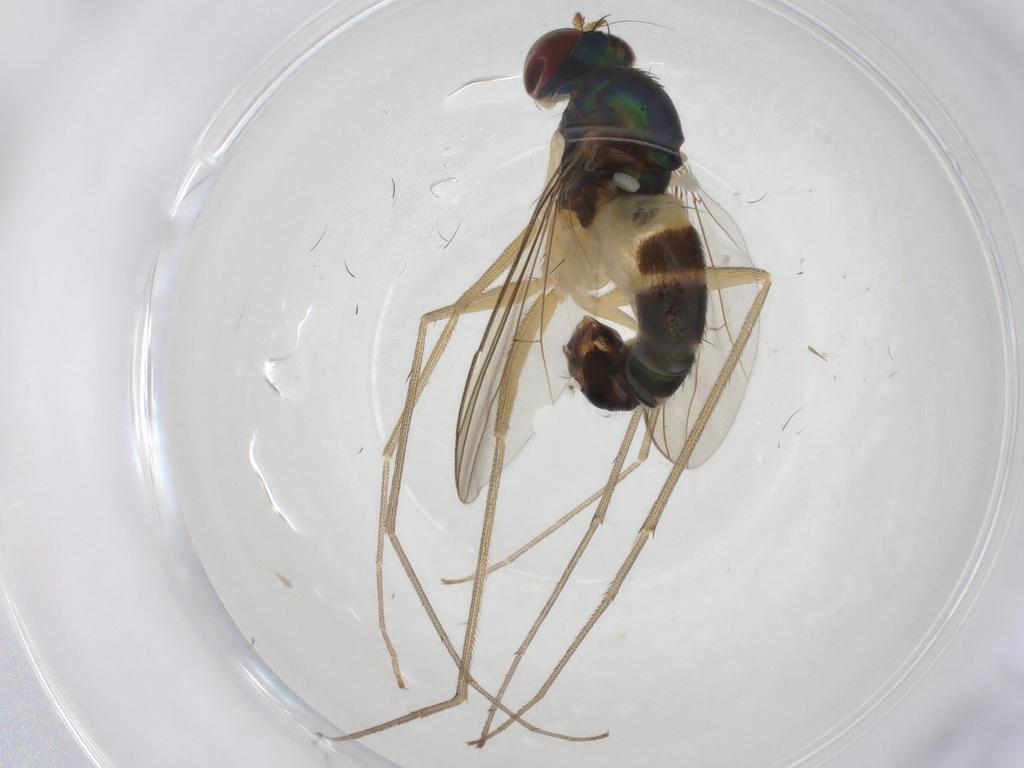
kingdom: Animalia
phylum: Arthropoda
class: Insecta
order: Diptera
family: Dolichopodidae
